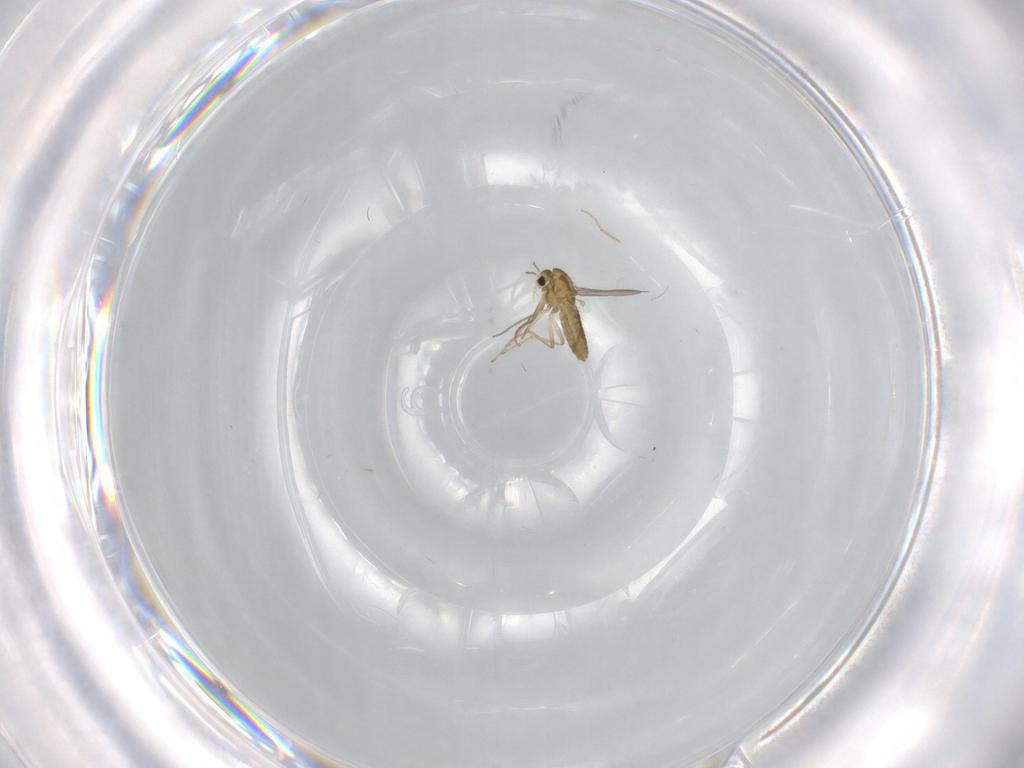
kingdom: Animalia
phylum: Arthropoda
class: Insecta
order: Diptera
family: Chironomidae
